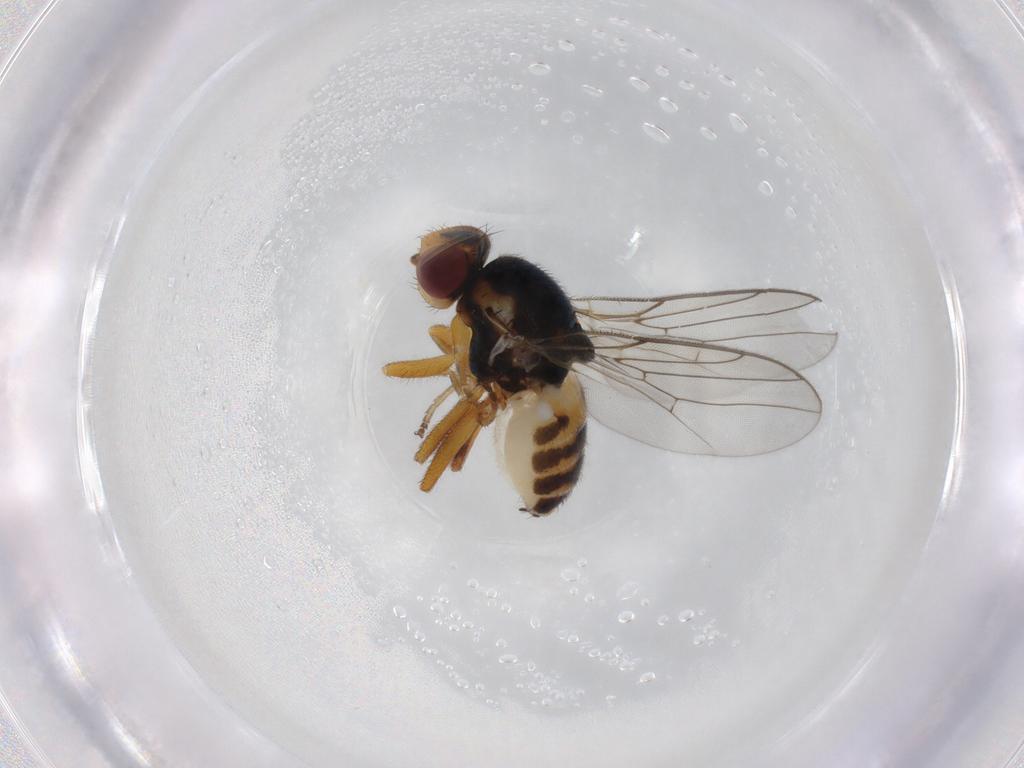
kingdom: Animalia
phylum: Arthropoda
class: Insecta
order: Diptera
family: Chloropidae
